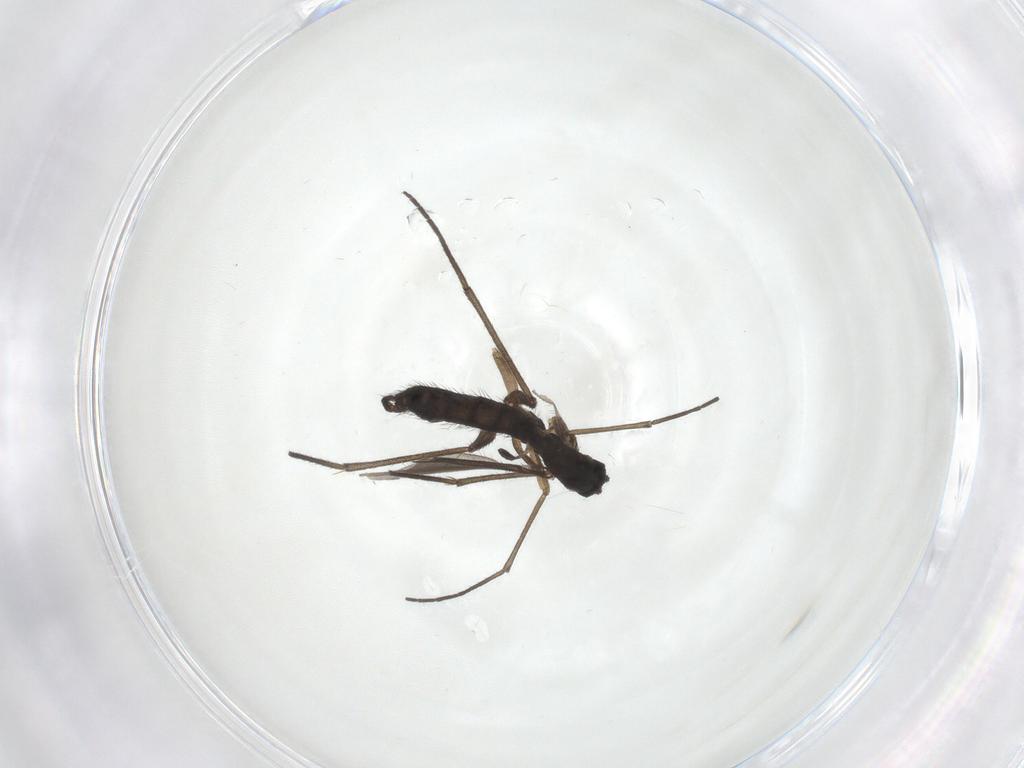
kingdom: Animalia
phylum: Arthropoda
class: Insecta
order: Diptera
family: Sciaridae
